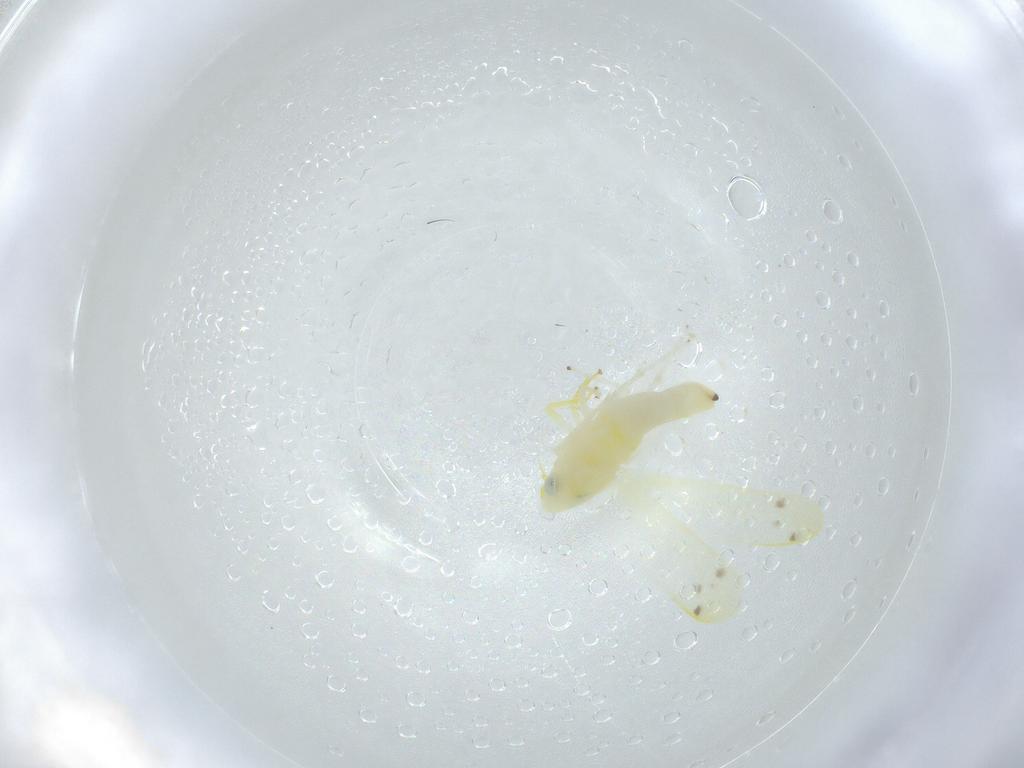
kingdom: Animalia
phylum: Arthropoda
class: Insecta
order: Hemiptera
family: Cicadellidae
